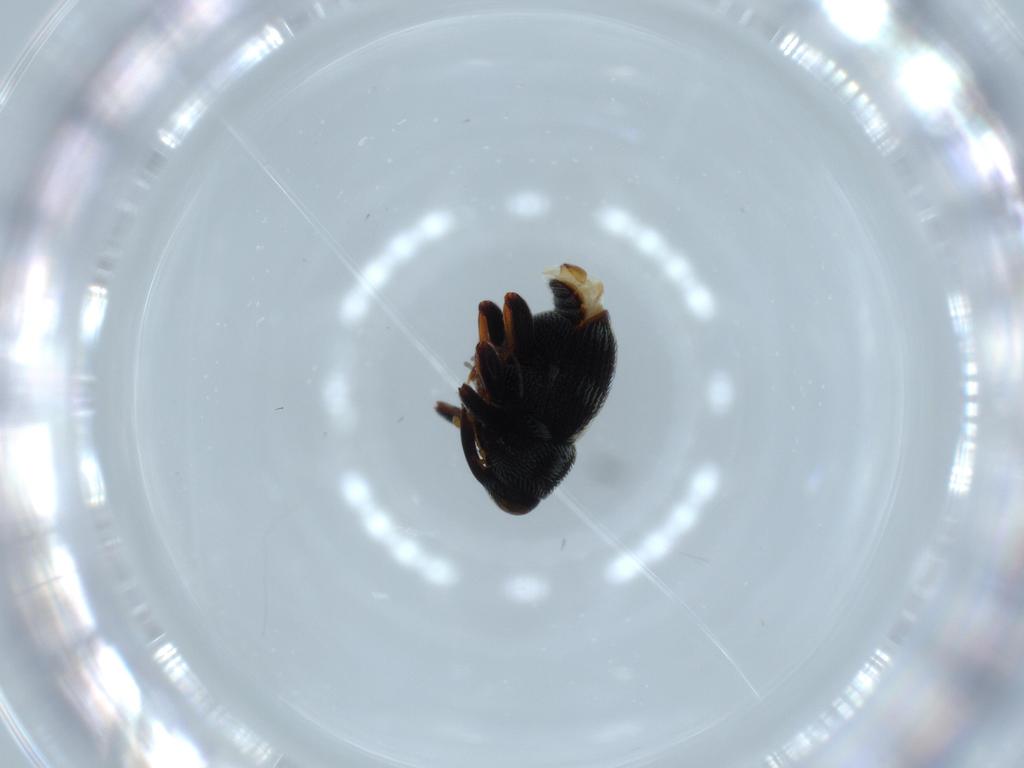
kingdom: Animalia
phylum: Arthropoda
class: Insecta
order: Coleoptera
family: Curculionidae
